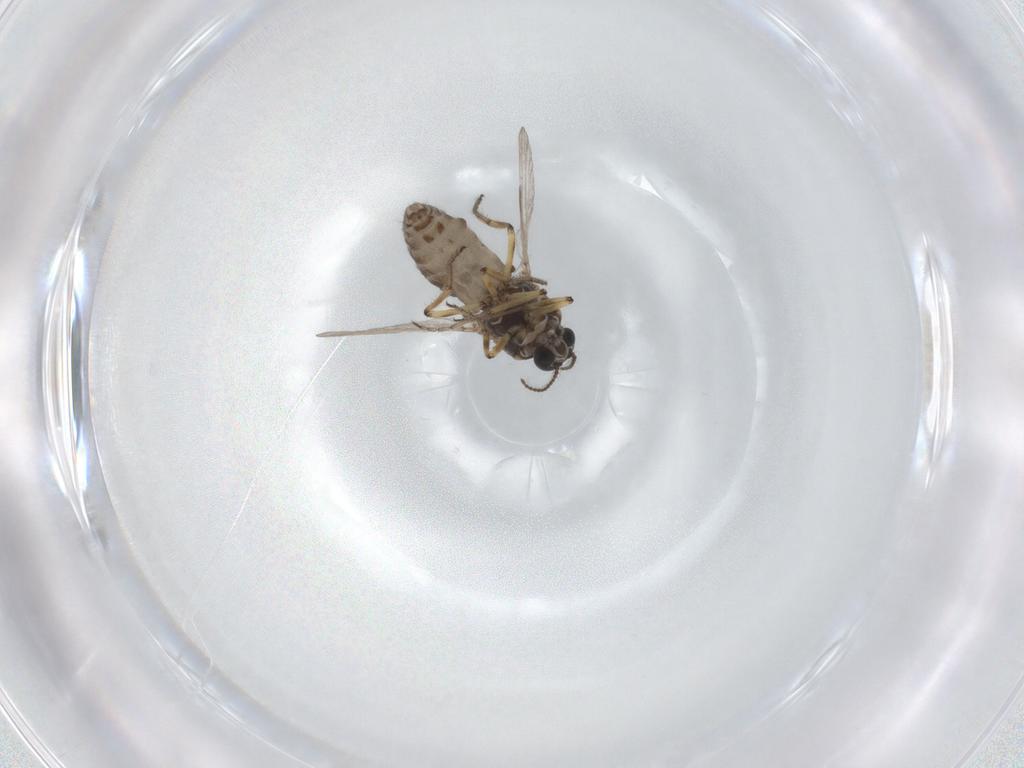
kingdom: Animalia
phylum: Arthropoda
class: Insecta
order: Diptera
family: Ceratopogonidae
